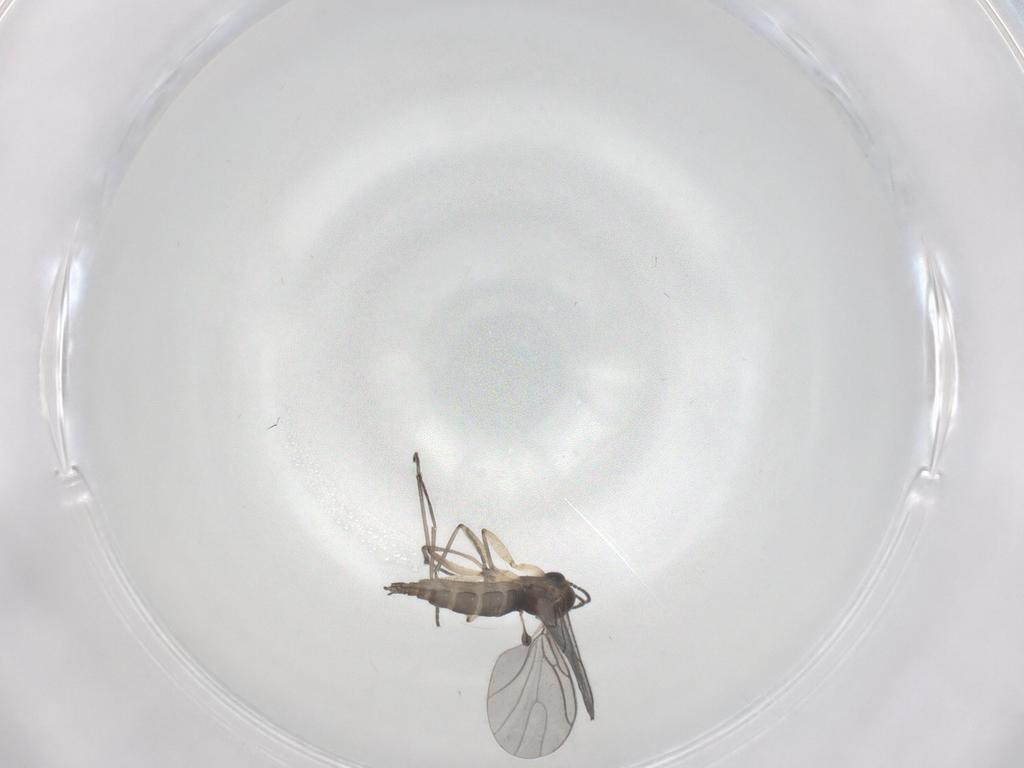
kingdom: Animalia
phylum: Arthropoda
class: Insecta
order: Diptera
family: Sciaridae
